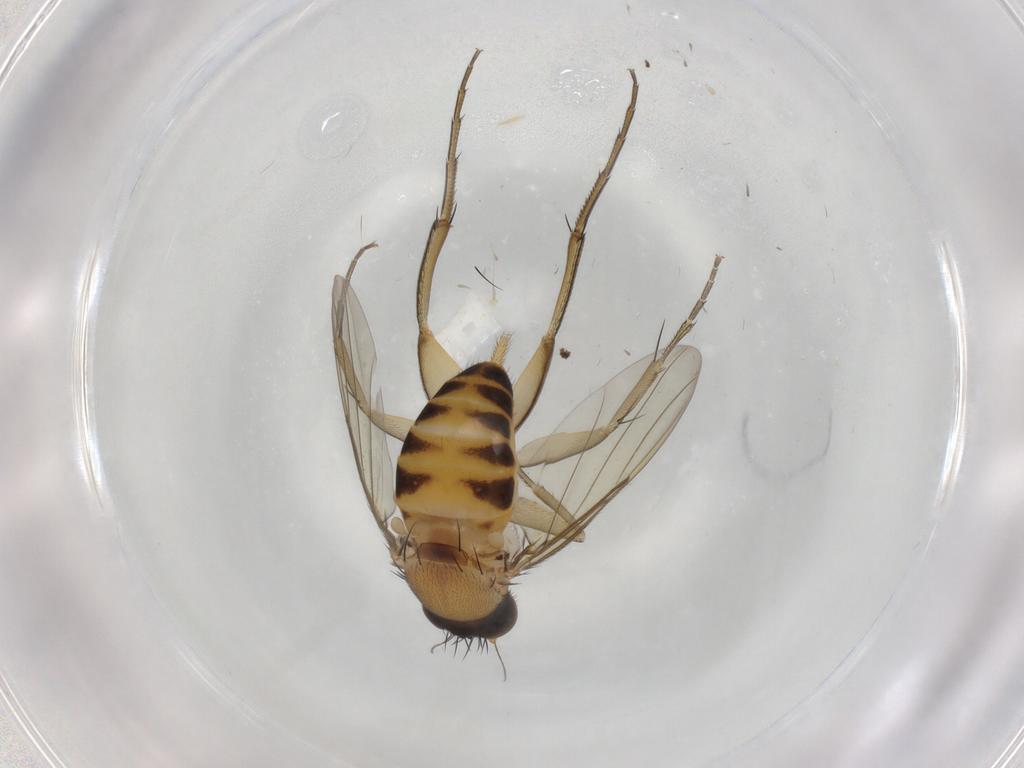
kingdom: Animalia
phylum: Arthropoda
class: Insecta
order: Diptera
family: Phoridae
